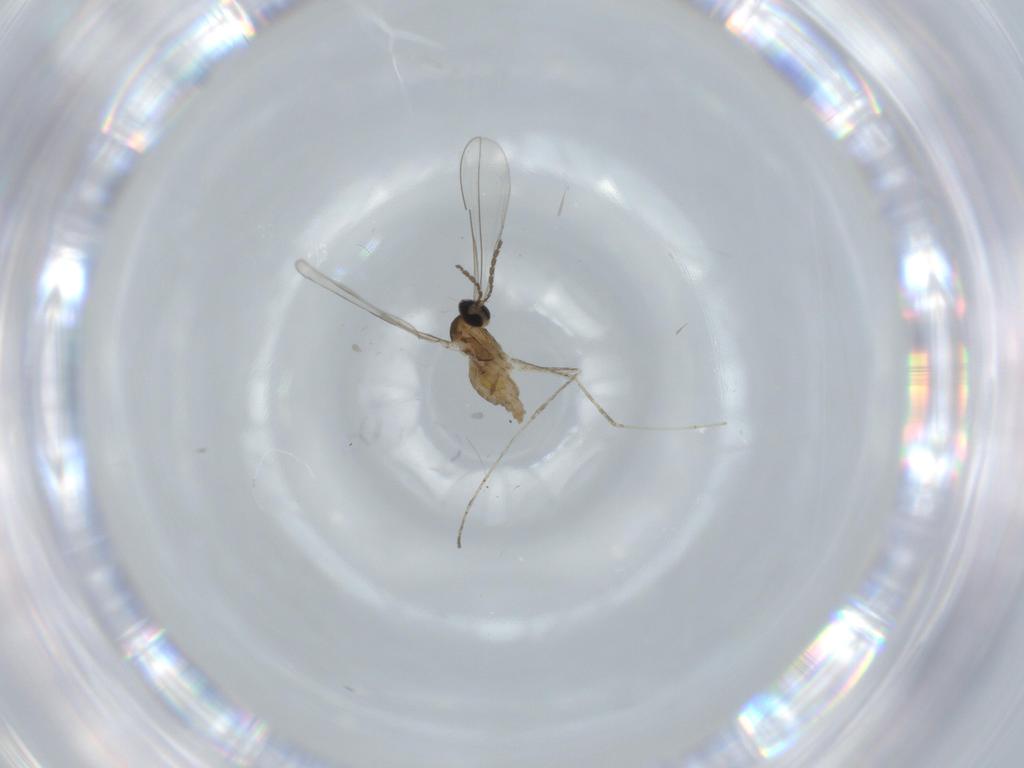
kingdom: Animalia
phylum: Arthropoda
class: Insecta
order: Diptera
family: Cecidomyiidae
